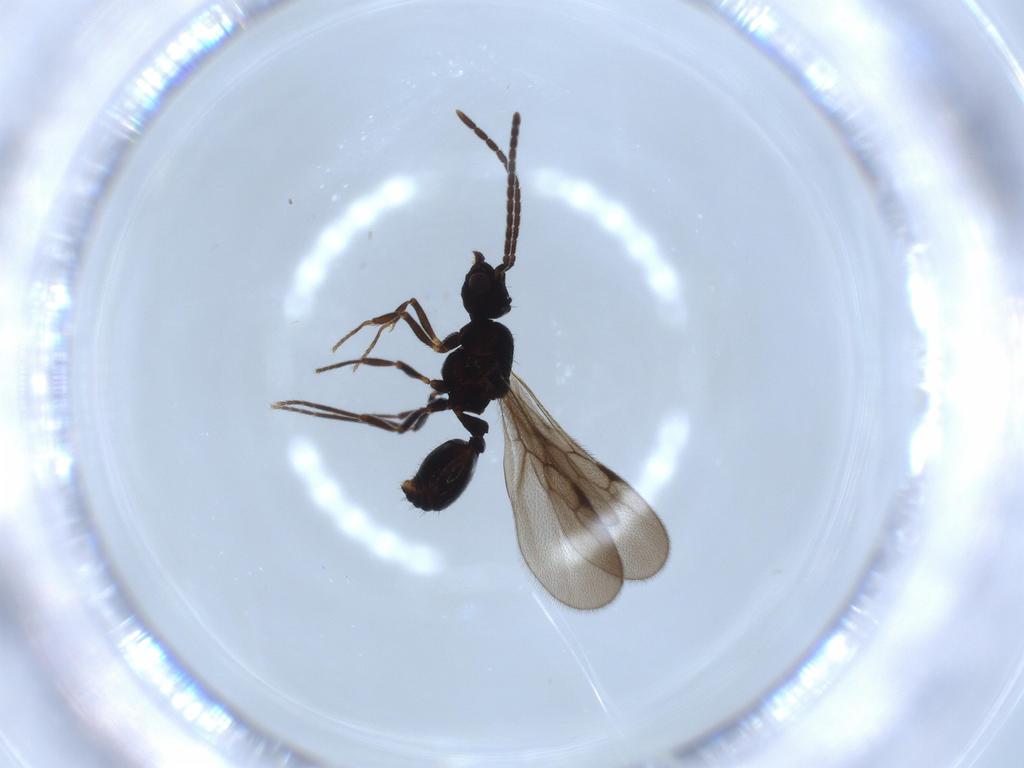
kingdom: Animalia
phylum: Arthropoda
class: Insecta
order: Hymenoptera
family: Formicidae
